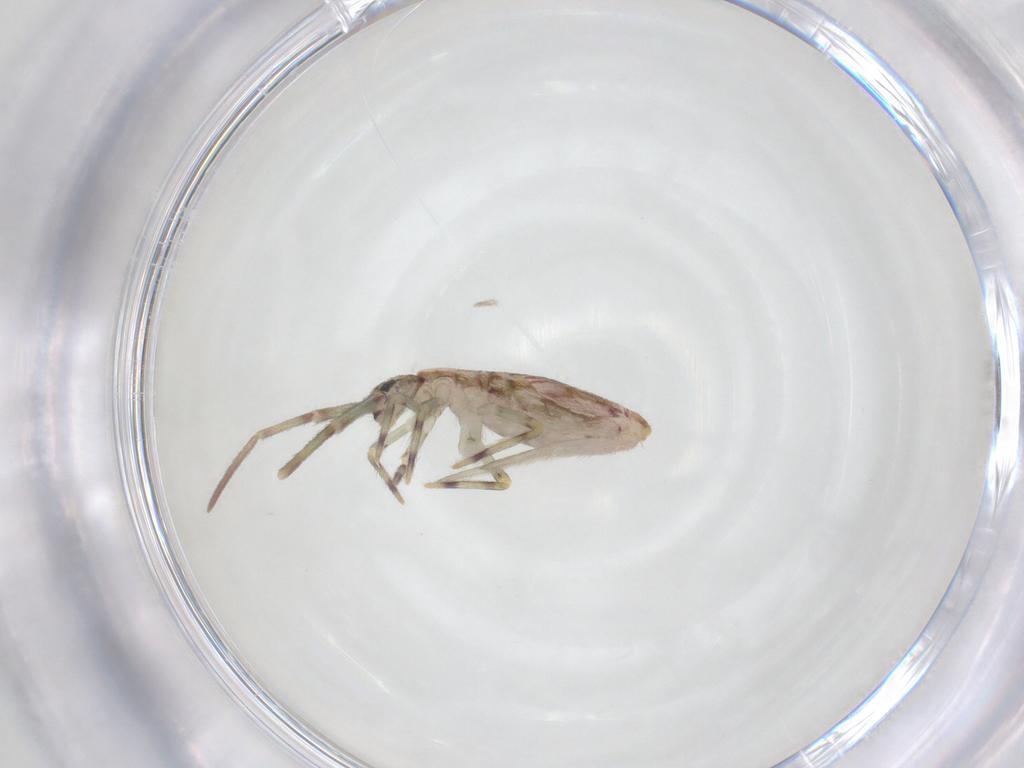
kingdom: Animalia
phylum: Arthropoda
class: Collembola
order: Entomobryomorpha
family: Entomobryidae
